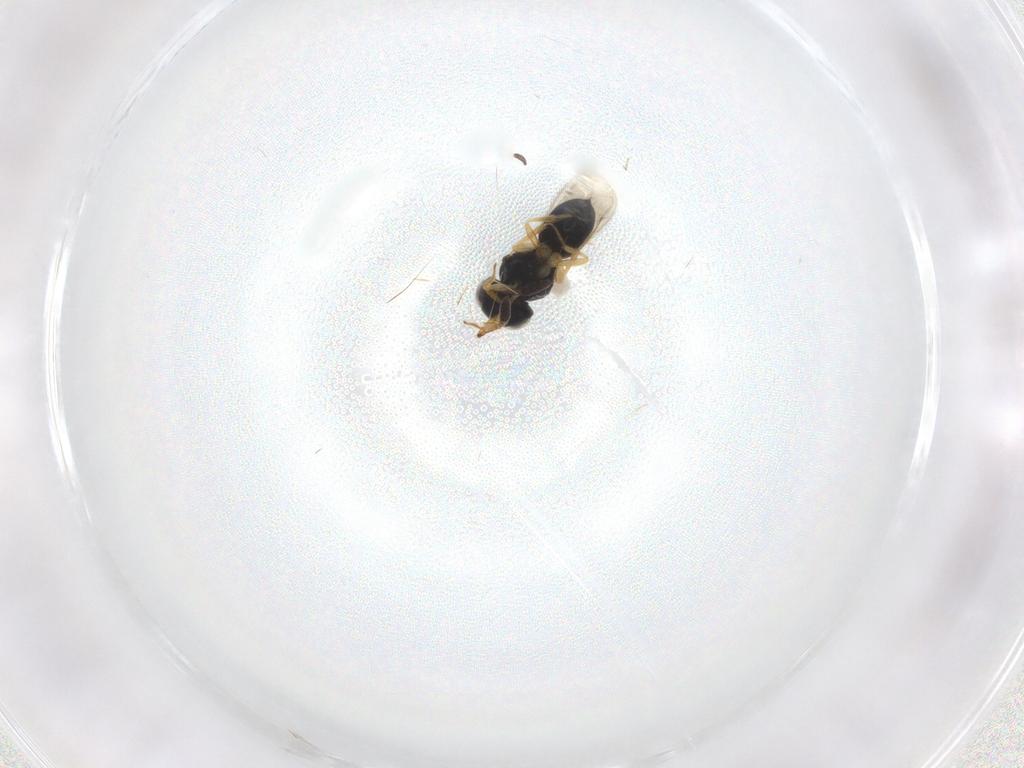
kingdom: Animalia
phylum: Arthropoda
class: Insecta
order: Hymenoptera
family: Scelionidae
